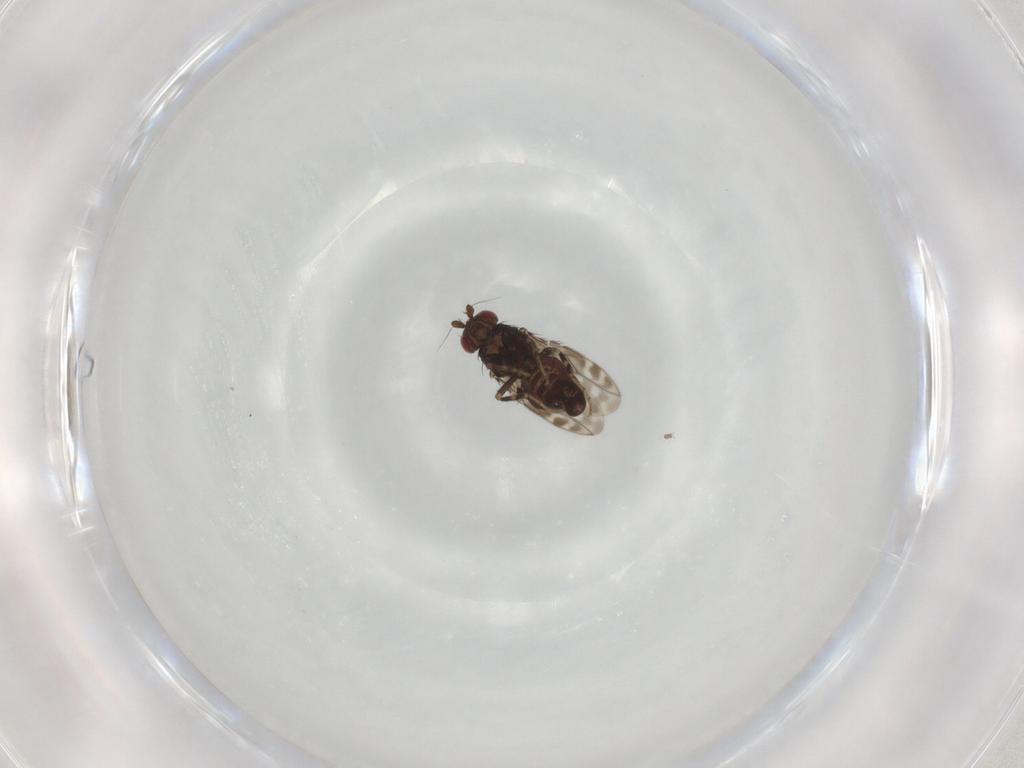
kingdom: Animalia
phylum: Arthropoda
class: Insecta
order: Diptera
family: Sphaeroceridae
